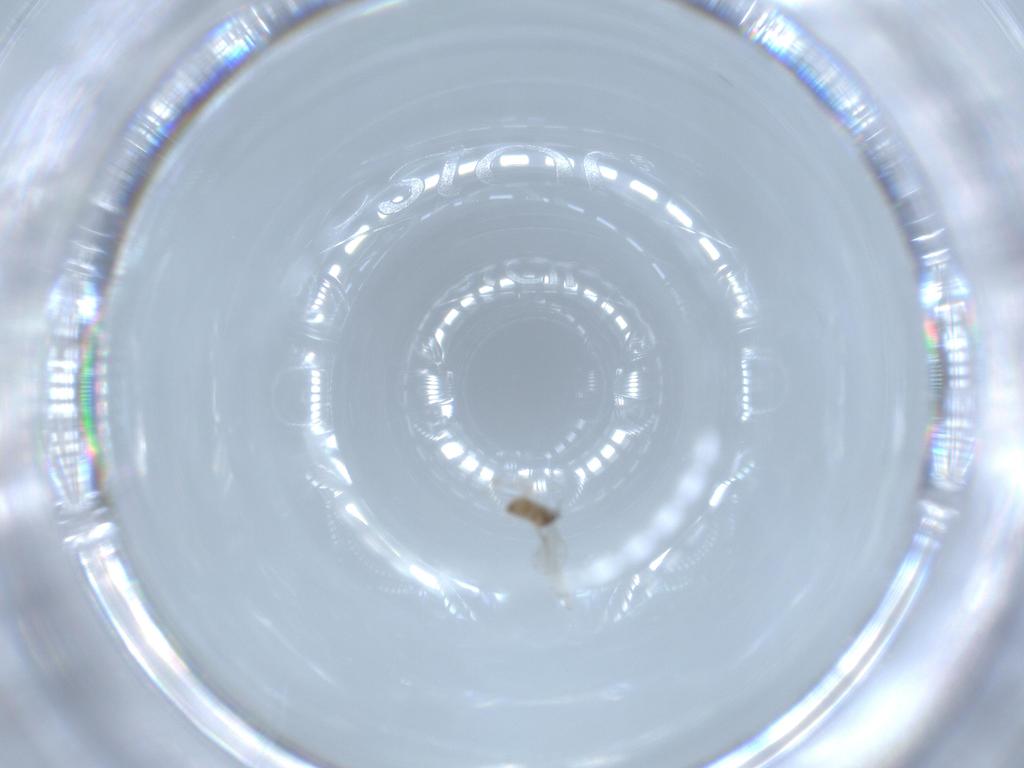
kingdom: Animalia
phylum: Arthropoda
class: Insecta
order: Diptera
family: Cecidomyiidae
